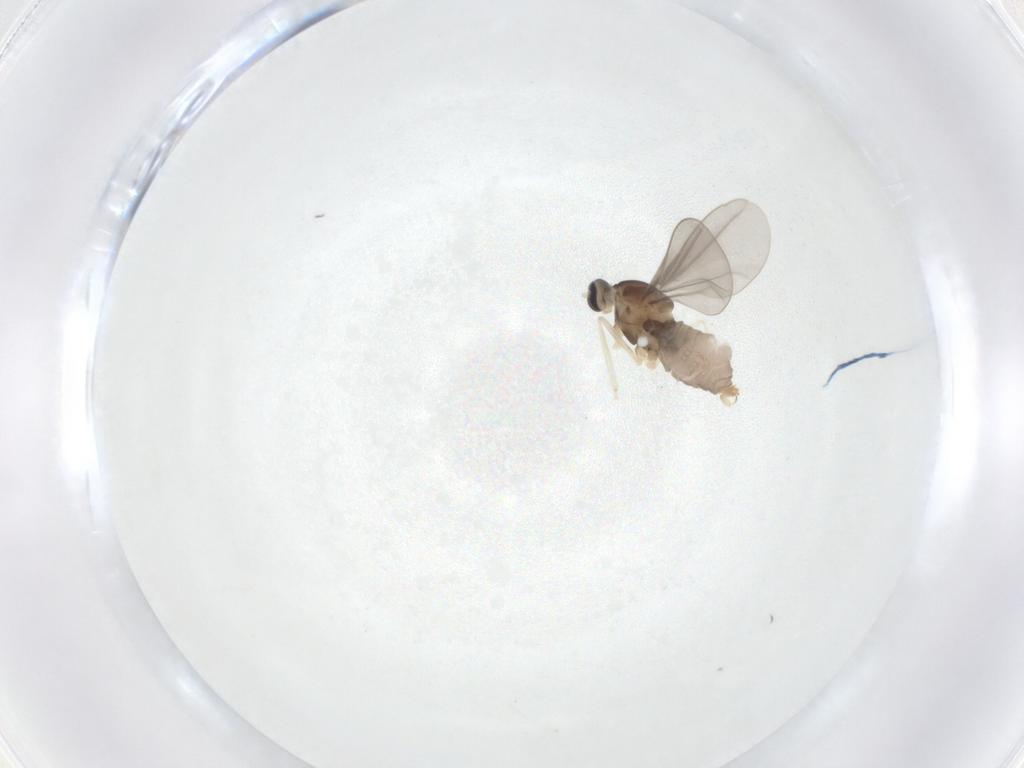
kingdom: Animalia
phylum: Arthropoda
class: Insecta
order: Diptera
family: Cecidomyiidae
